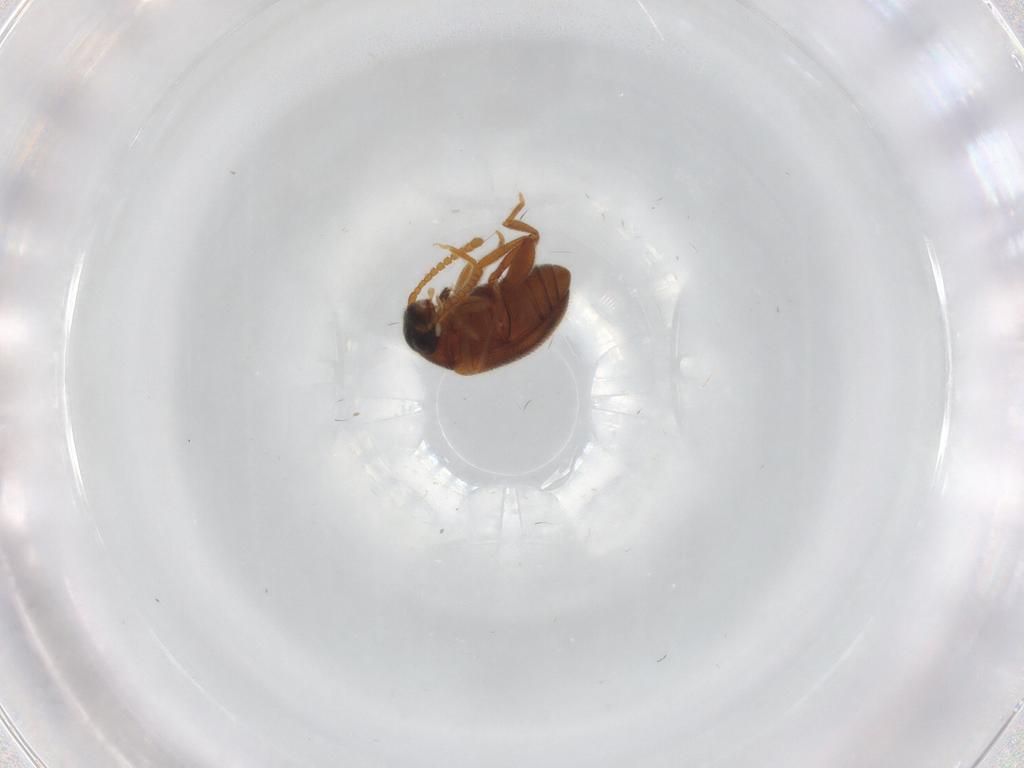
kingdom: Animalia
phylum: Arthropoda
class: Insecta
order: Coleoptera
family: Aderidae
